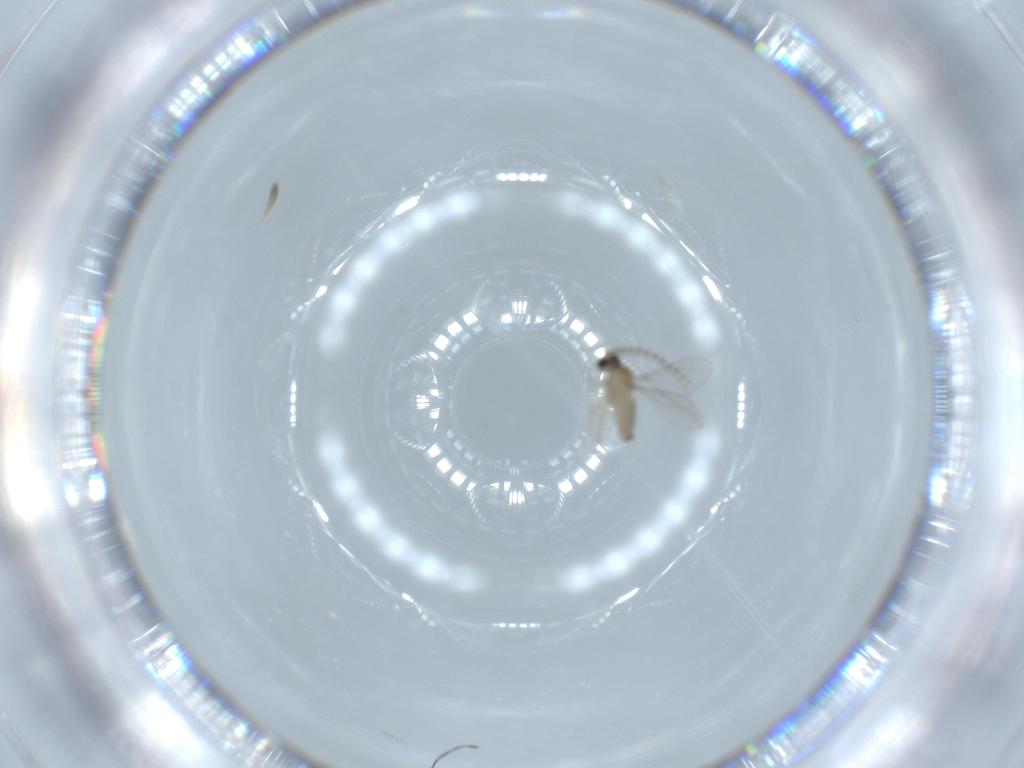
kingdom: Animalia
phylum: Arthropoda
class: Insecta
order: Diptera
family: Cecidomyiidae
